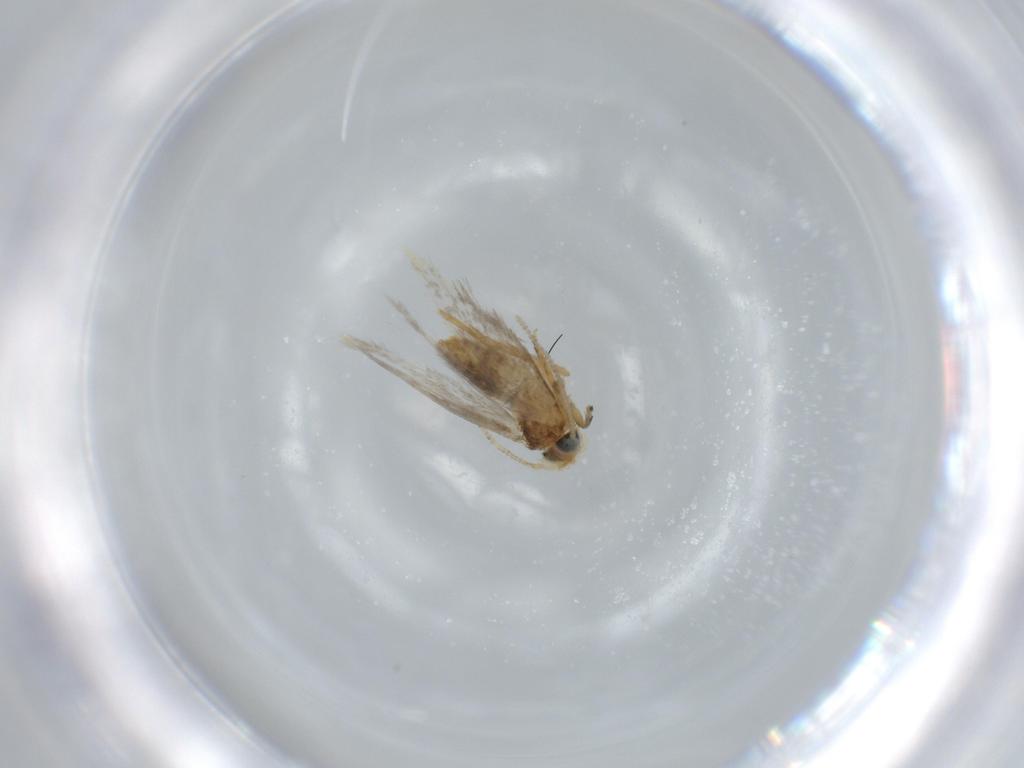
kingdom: Animalia
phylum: Arthropoda
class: Insecta
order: Lepidoptera
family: Nepticulidae
